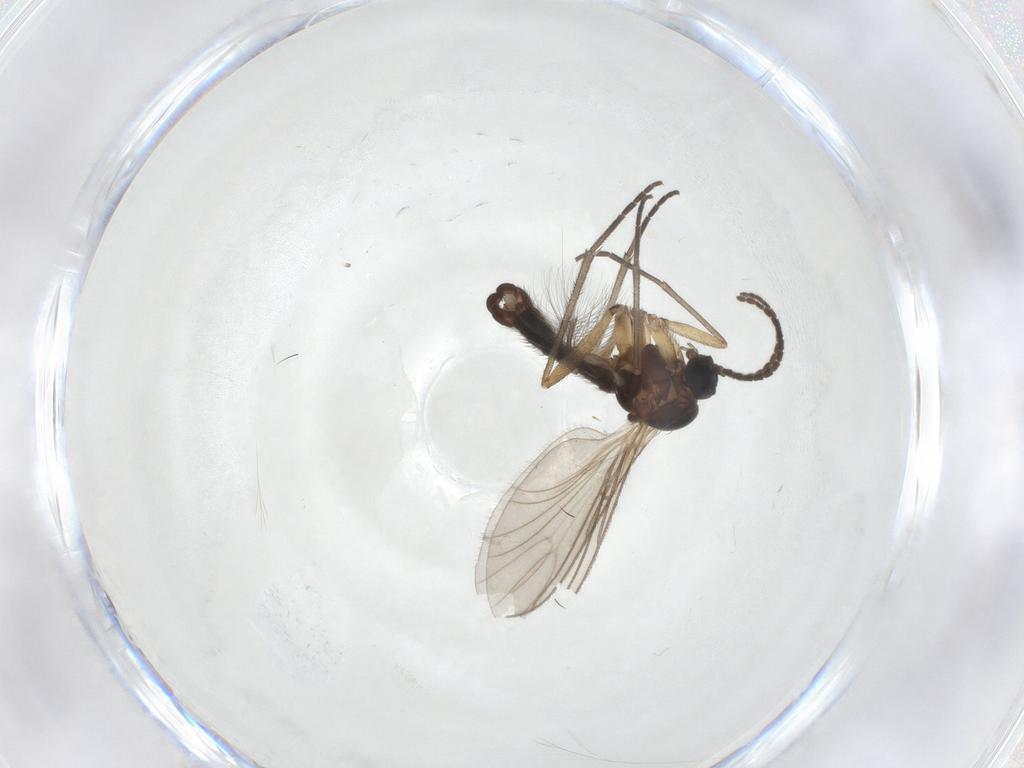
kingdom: Animalia
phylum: Arthropoda
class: Insecta
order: Diptera
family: Sciaridae
